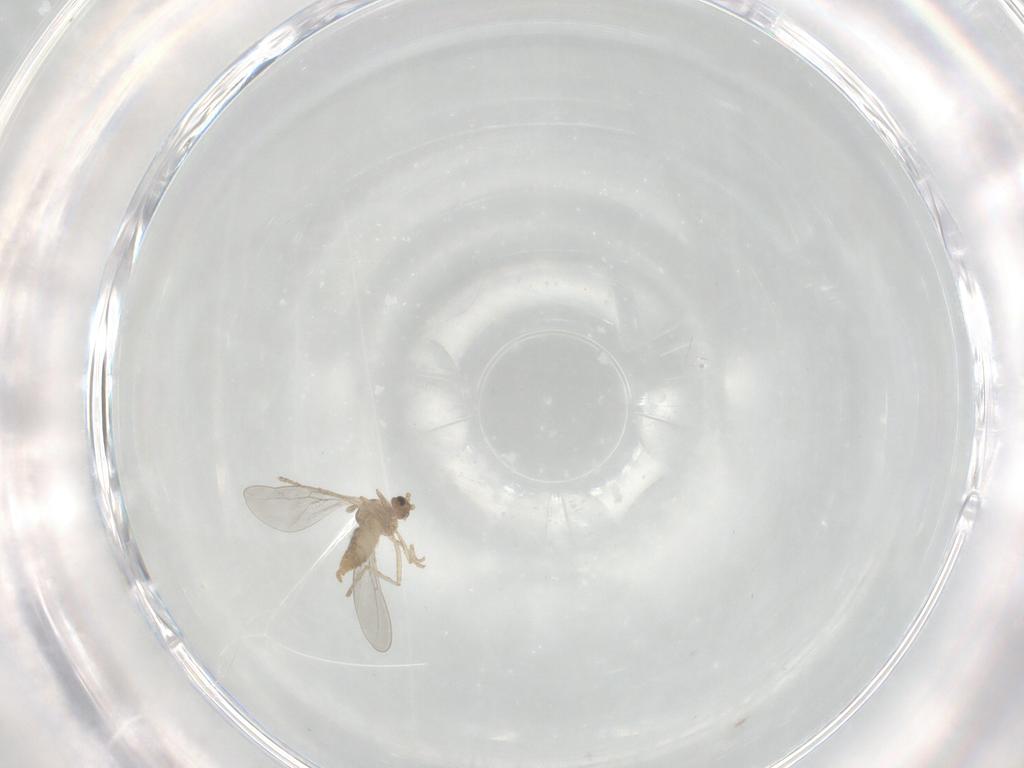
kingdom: Animalia
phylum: Arthropoda
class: Insecta
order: Diptera
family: Cecidomyiidae
